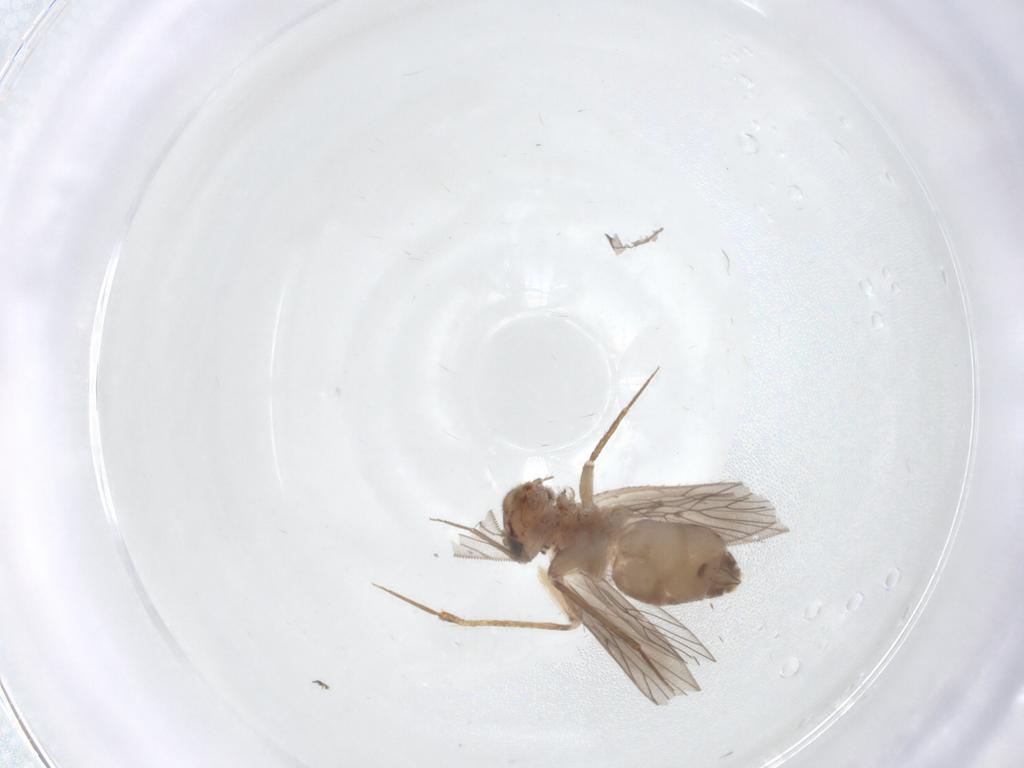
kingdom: Animalia
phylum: Arthropoda
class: Insecta
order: Psocodea
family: Lepidopsocidae
